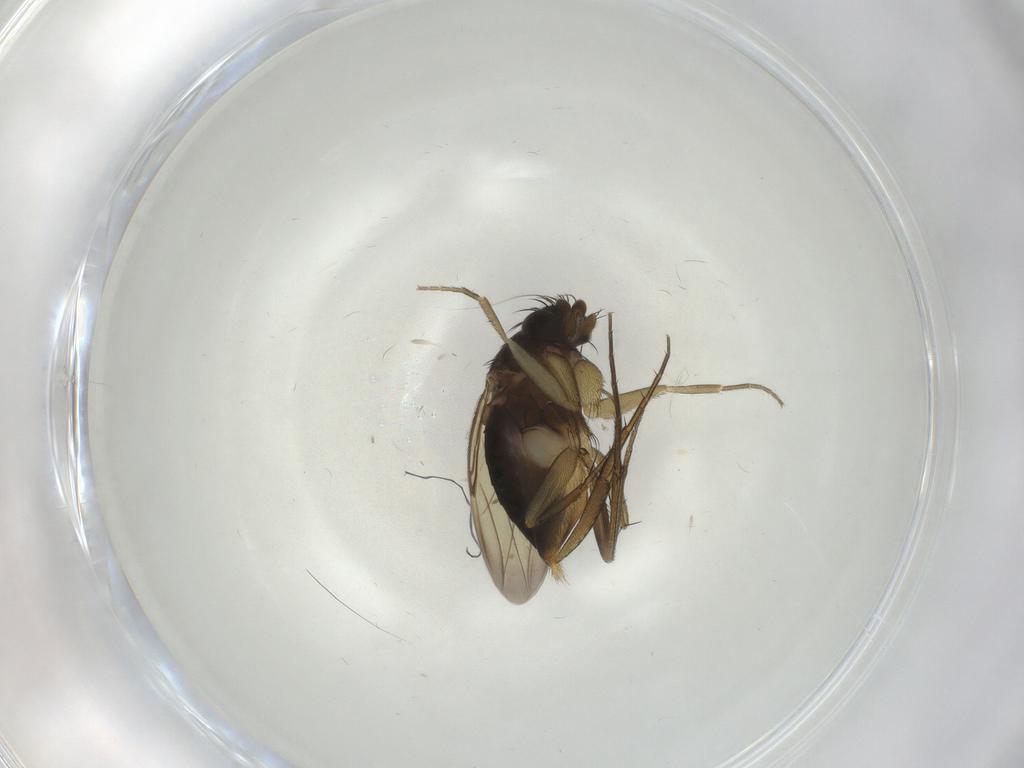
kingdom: Animalia
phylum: Arthropoda
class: Insecta
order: Diptera
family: Phoridae
